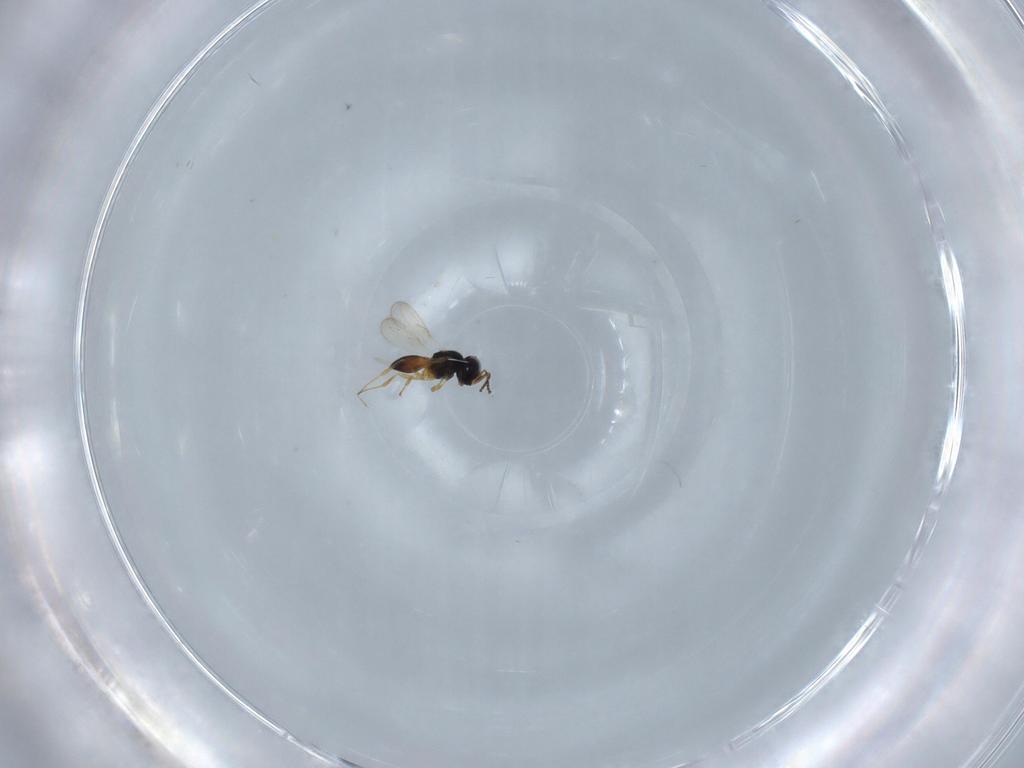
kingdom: Animalia
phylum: Arthropoda
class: Insecta
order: Hymenoptera
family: Scelionidae
